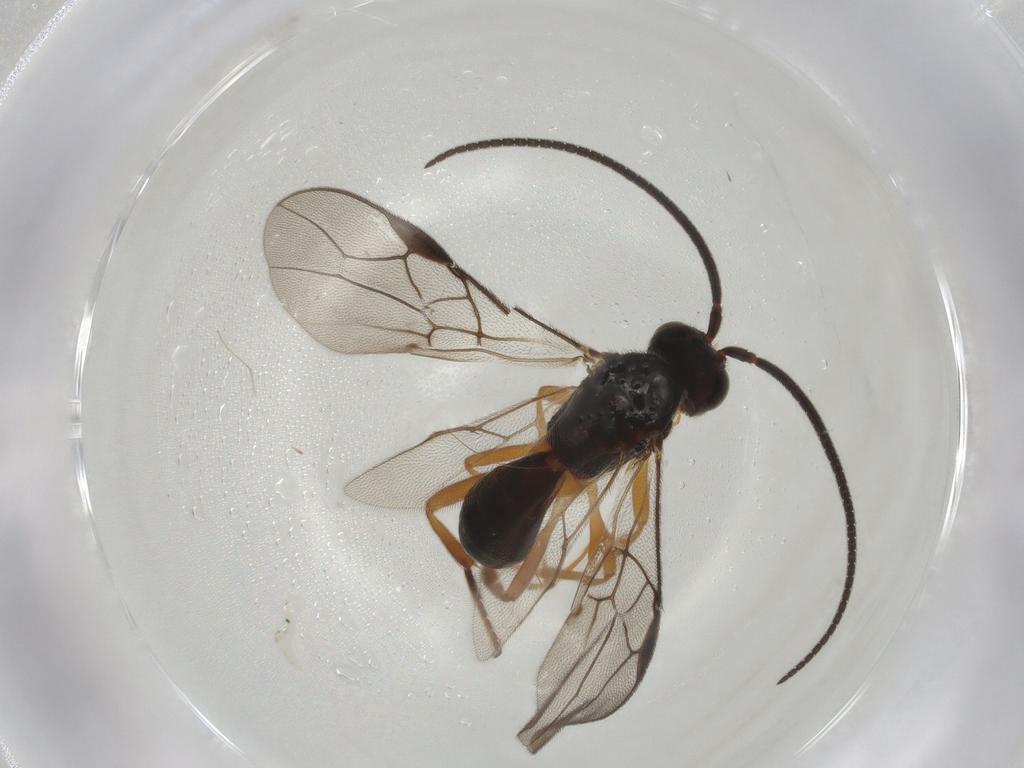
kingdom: Animalia
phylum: Arthropoda
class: Insecta
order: Hymenoptera
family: Braconidae
